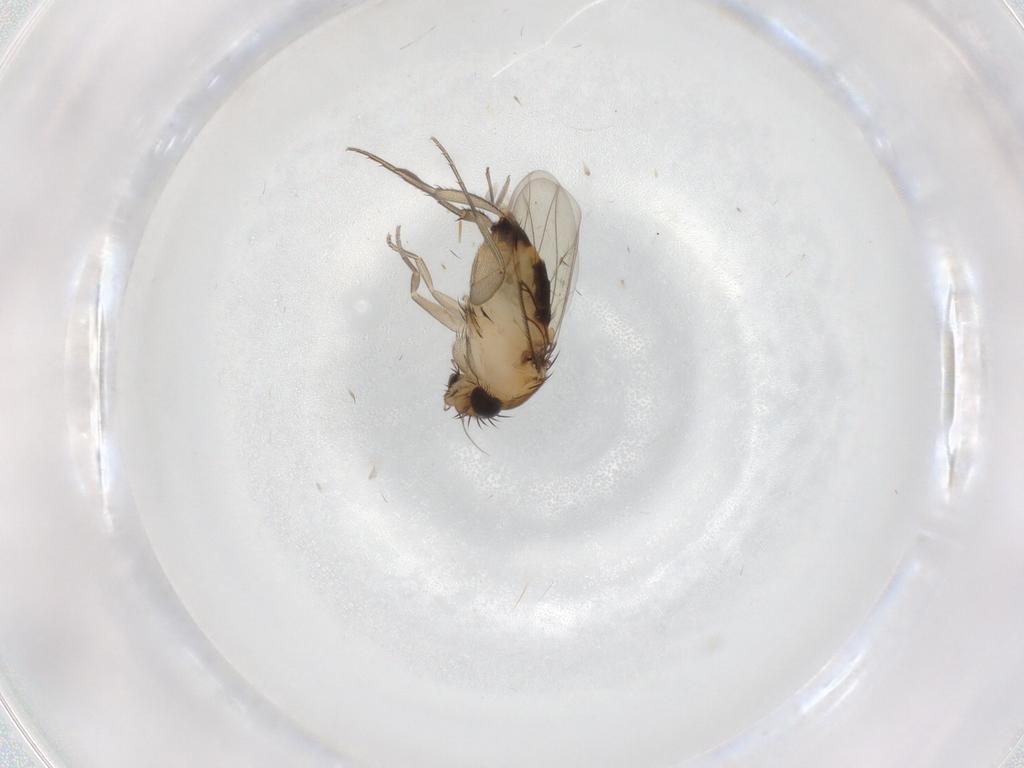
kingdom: Animalia
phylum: Arthropoda
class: Insecta
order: Diptera
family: Phoridae
